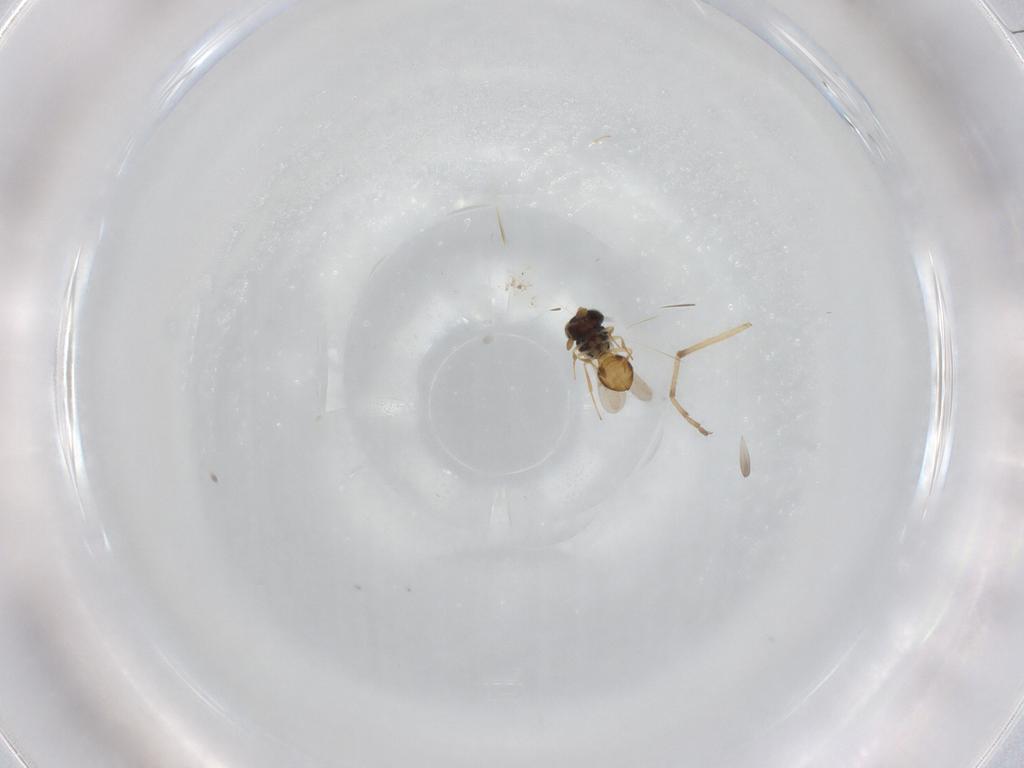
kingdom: Animalia
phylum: Arthropoda
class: Insecta
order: Hymenoptera
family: Scelionidae
